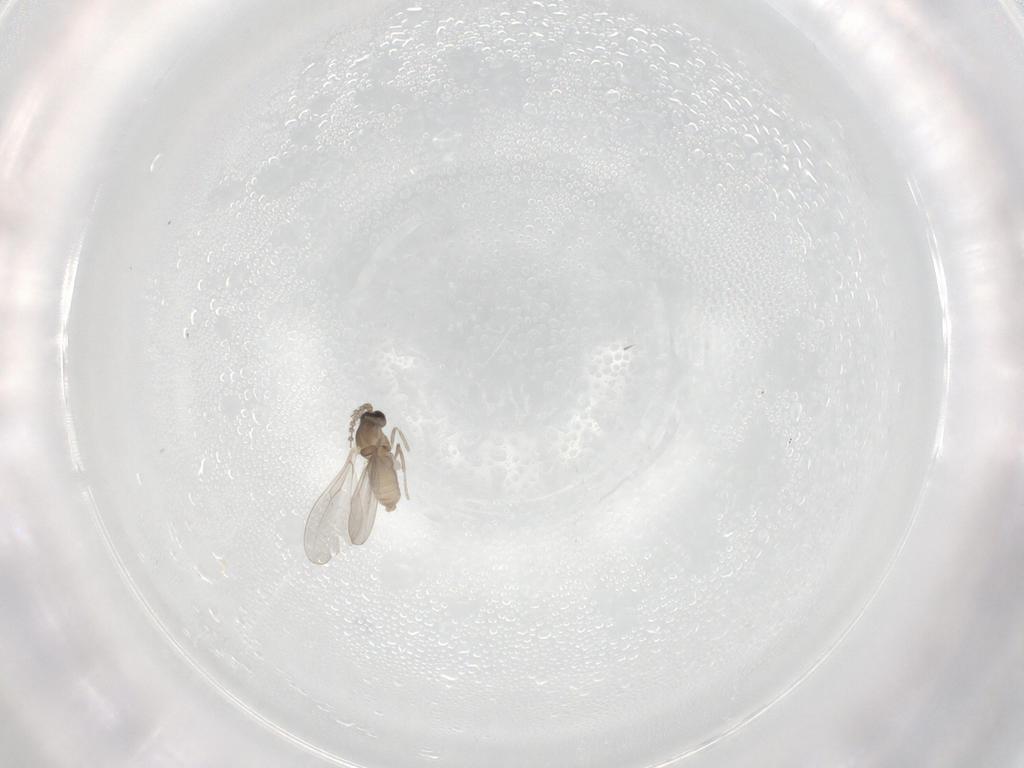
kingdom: Animalia
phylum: Arthropoda
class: Insecta
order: Diptera
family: Cecidomyiidae
